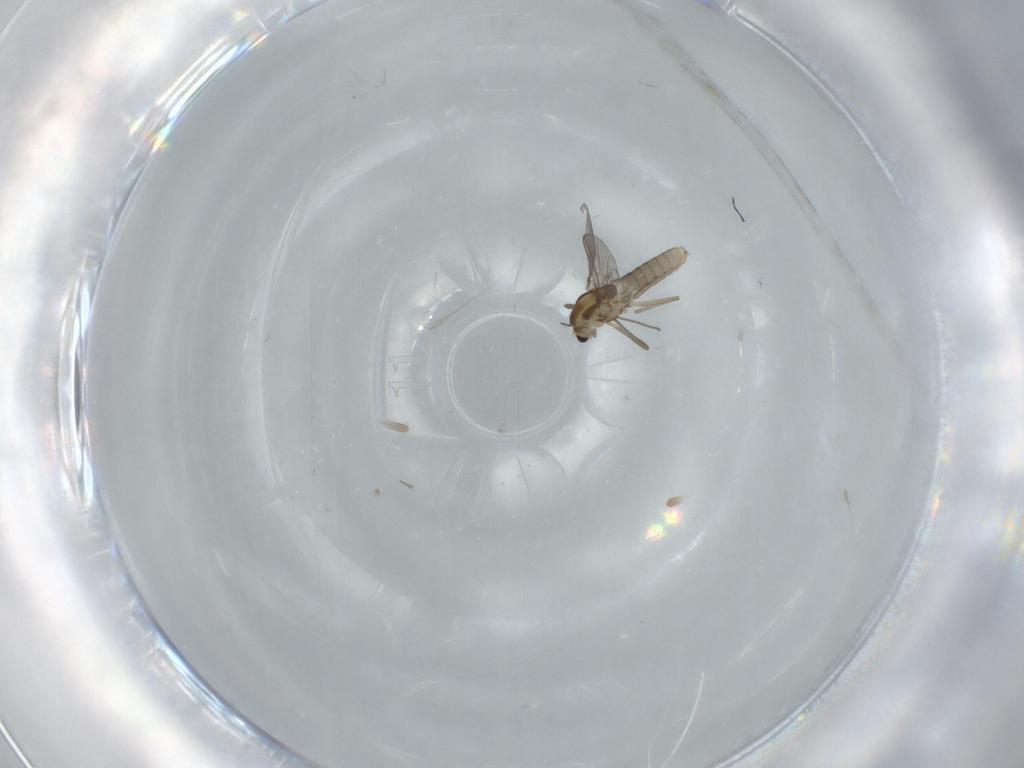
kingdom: Animalia
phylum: Arthropoda
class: Insecta
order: Diptera
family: Chironomidae
